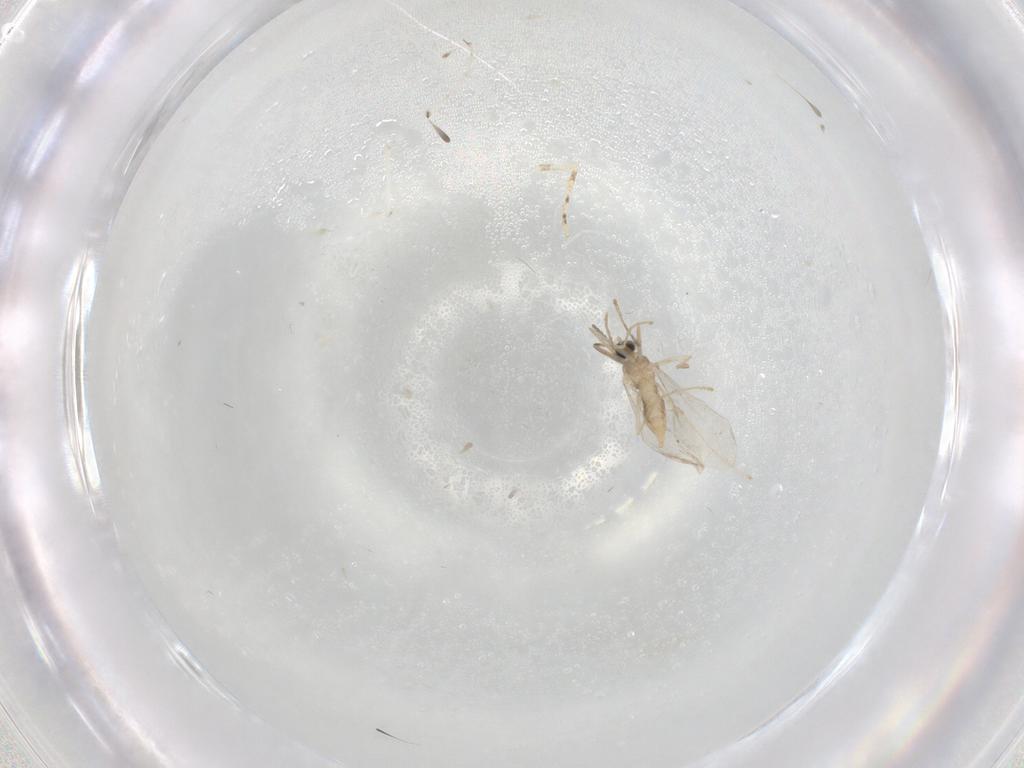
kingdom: Animalia
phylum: Arthropoda
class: Insecta
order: Diptera
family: Cecidomyiidae
